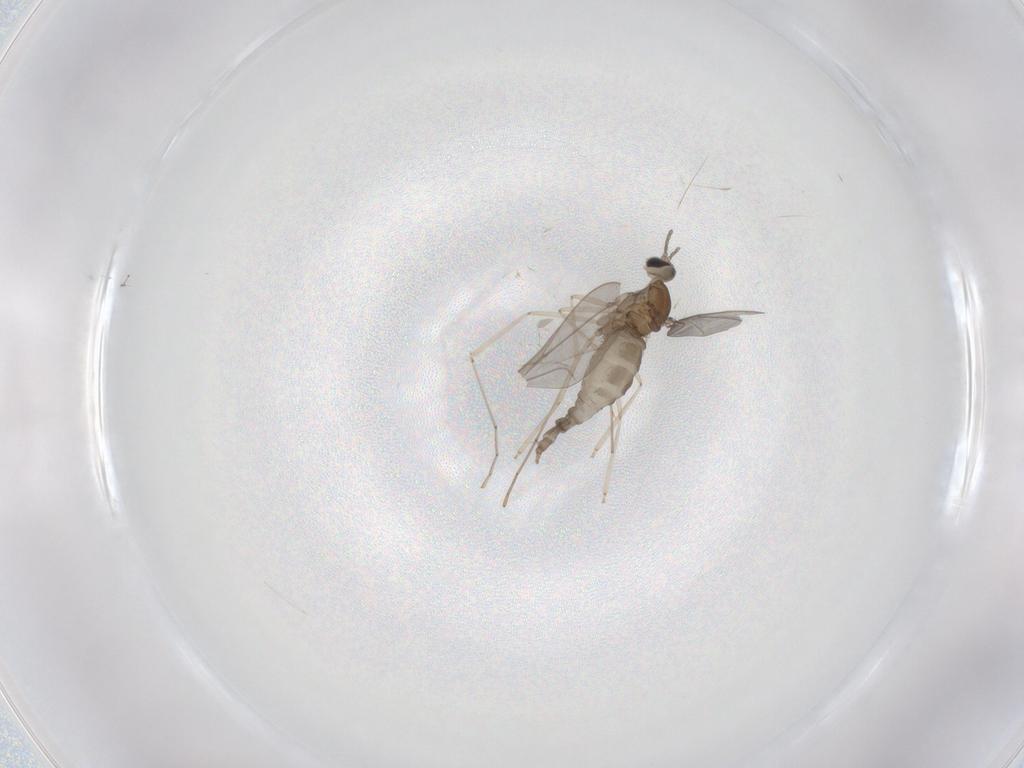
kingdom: Animalia
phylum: Arthropoda
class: Insecta
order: Diptera
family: Cecidomyiidae
